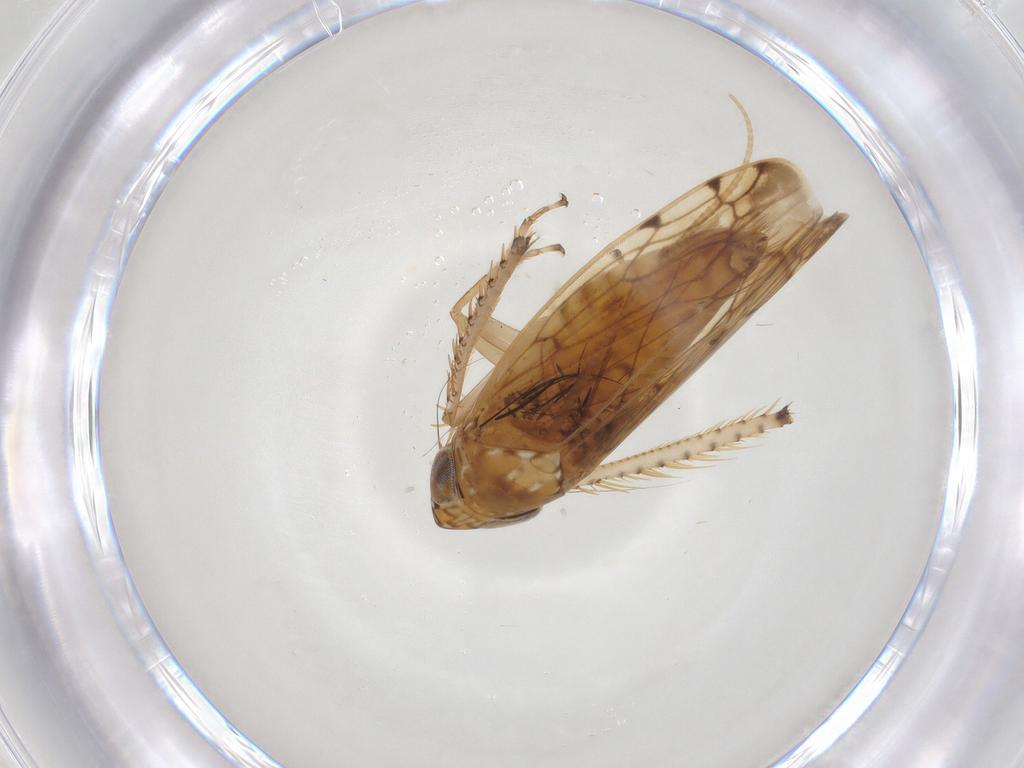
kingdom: Animalia
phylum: Arthropoda
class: Insecta
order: Hemiptera
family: Cicadellidae
